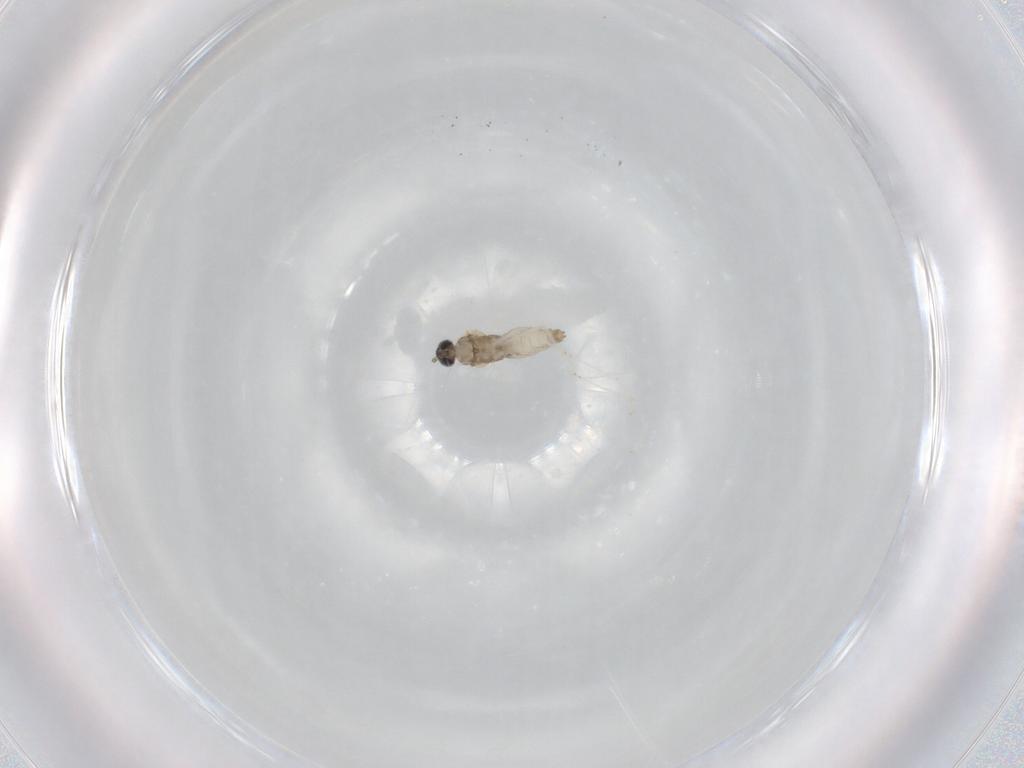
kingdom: Animalia
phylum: Arthropoda
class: Insecta
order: Diptera
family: Cecidomyiidae
